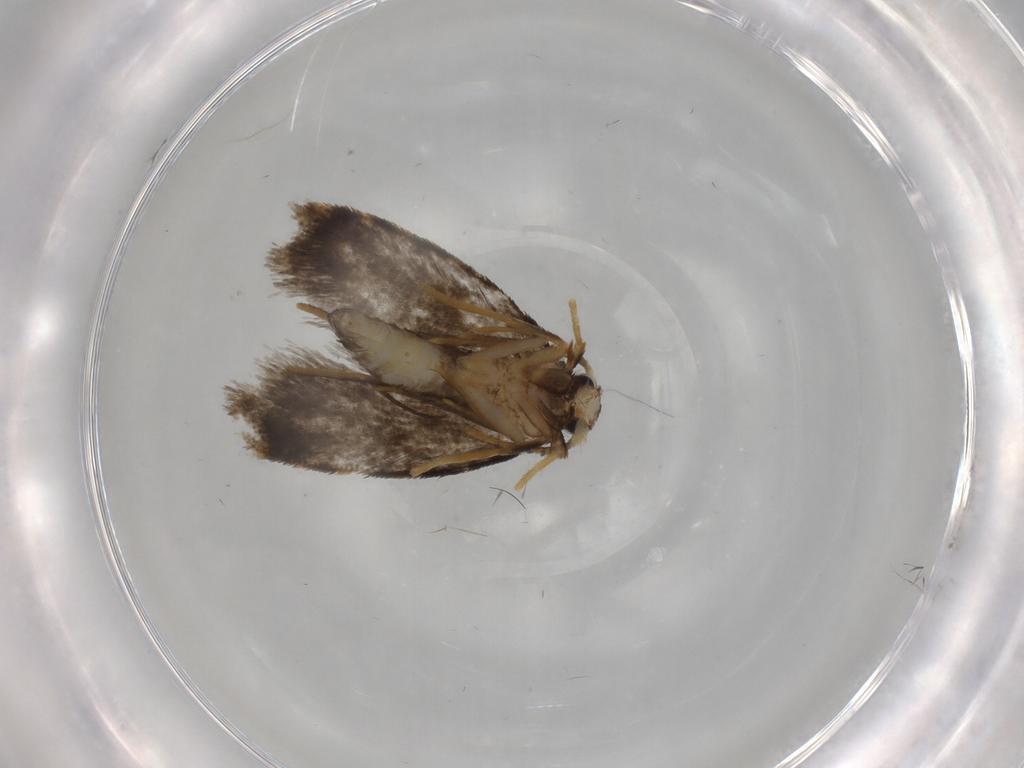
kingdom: Animalia
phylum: Arthropoda
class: Insecta
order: Lepidoptera
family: Psychidae
